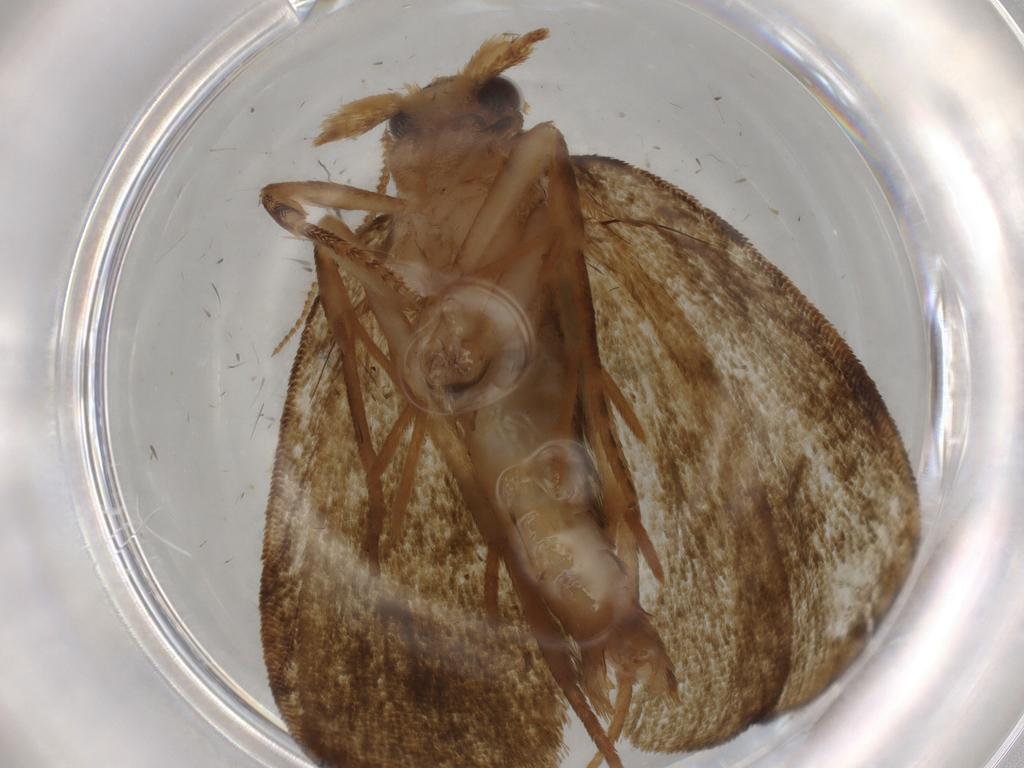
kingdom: Animalia
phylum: Arthropoda
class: Insecta
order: Lepidoptera
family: Geometridae
